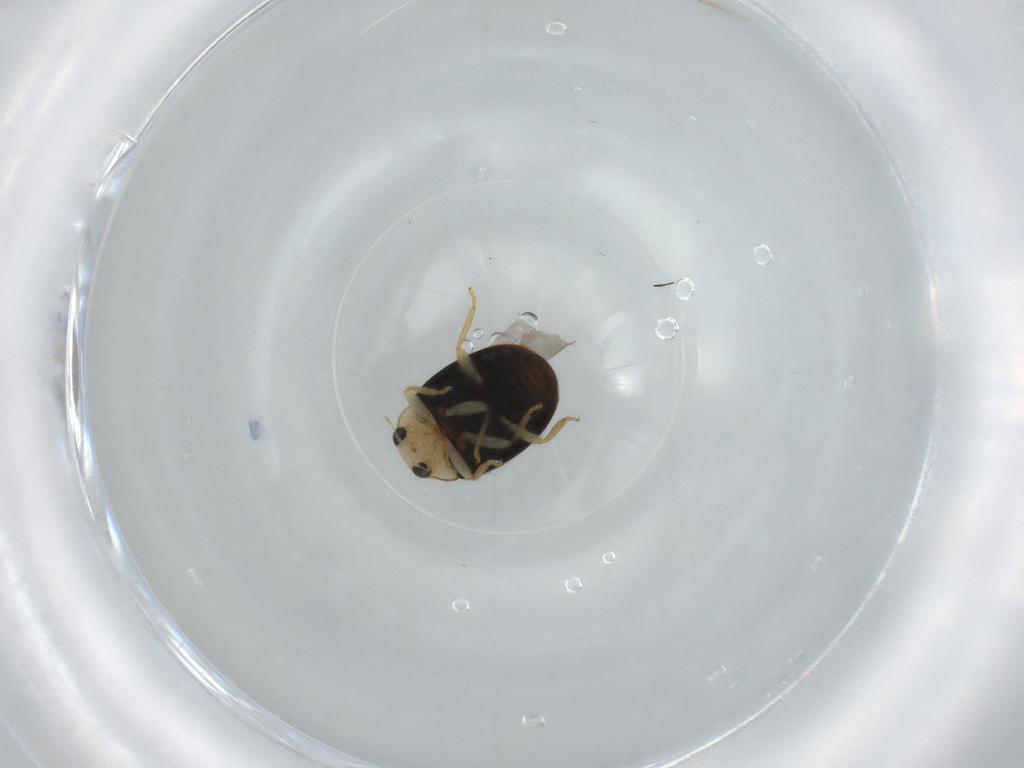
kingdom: Animalia
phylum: Arthropoda
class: Insecta
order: Coleoptera
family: Coccinellidae
